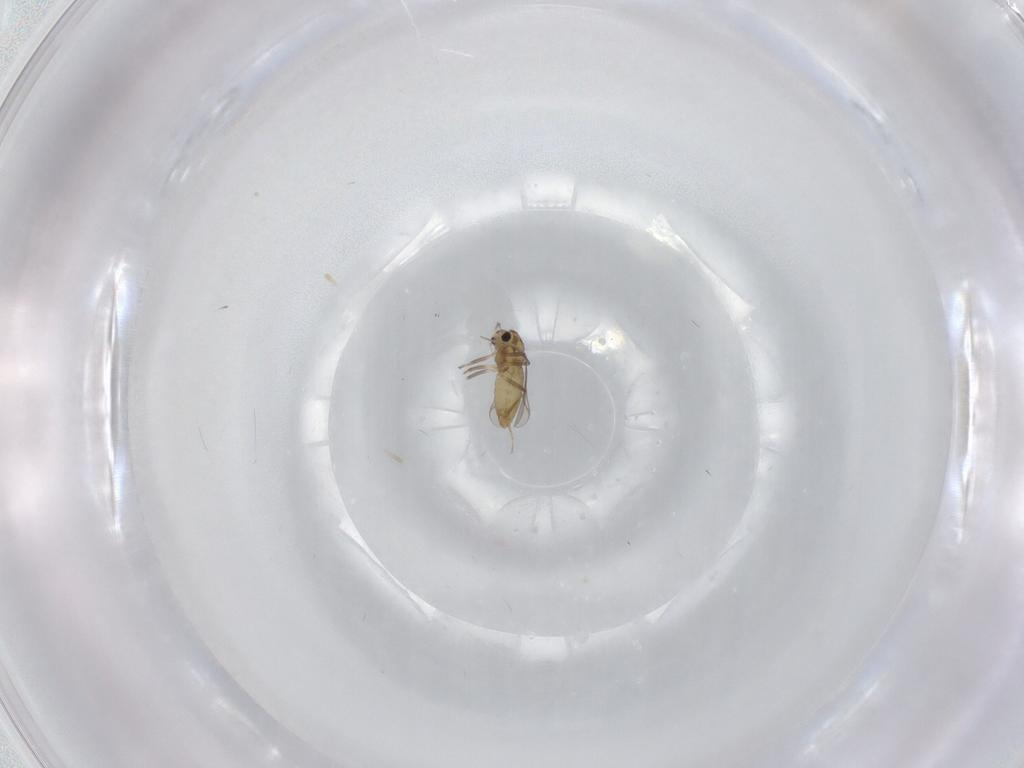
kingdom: Animalia
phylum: Arthropoda
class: Insecta
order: Diptera
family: Chironomidae
